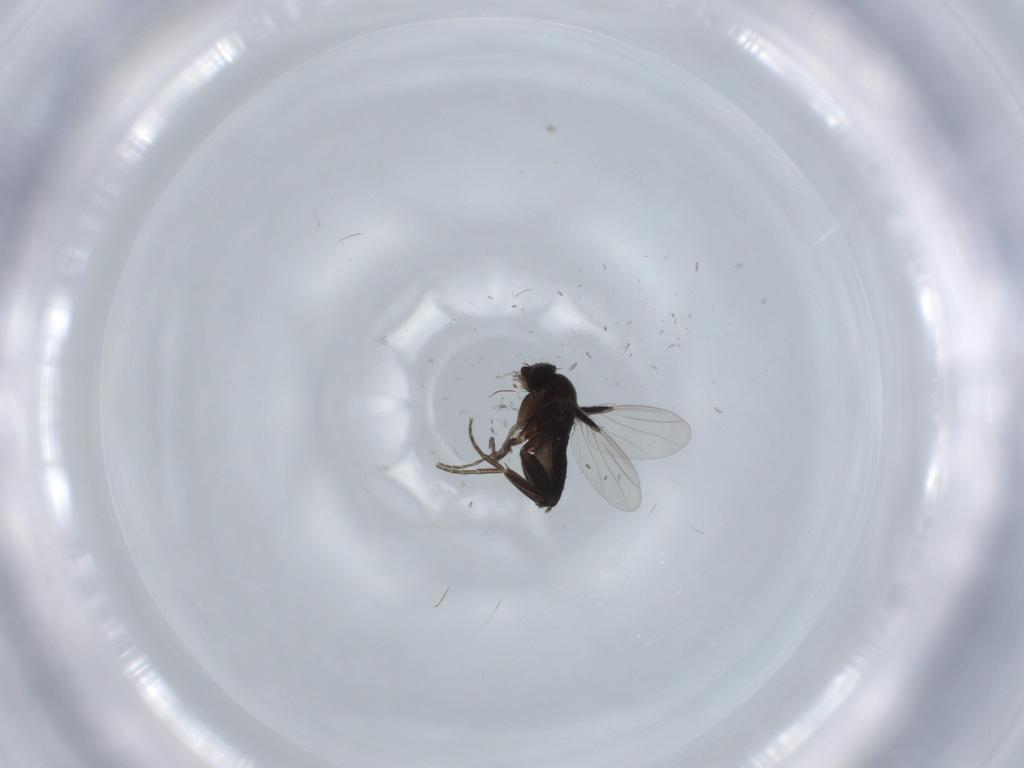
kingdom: Animalia
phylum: Arthropoda
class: Insecta
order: Diptera
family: Phoridae
